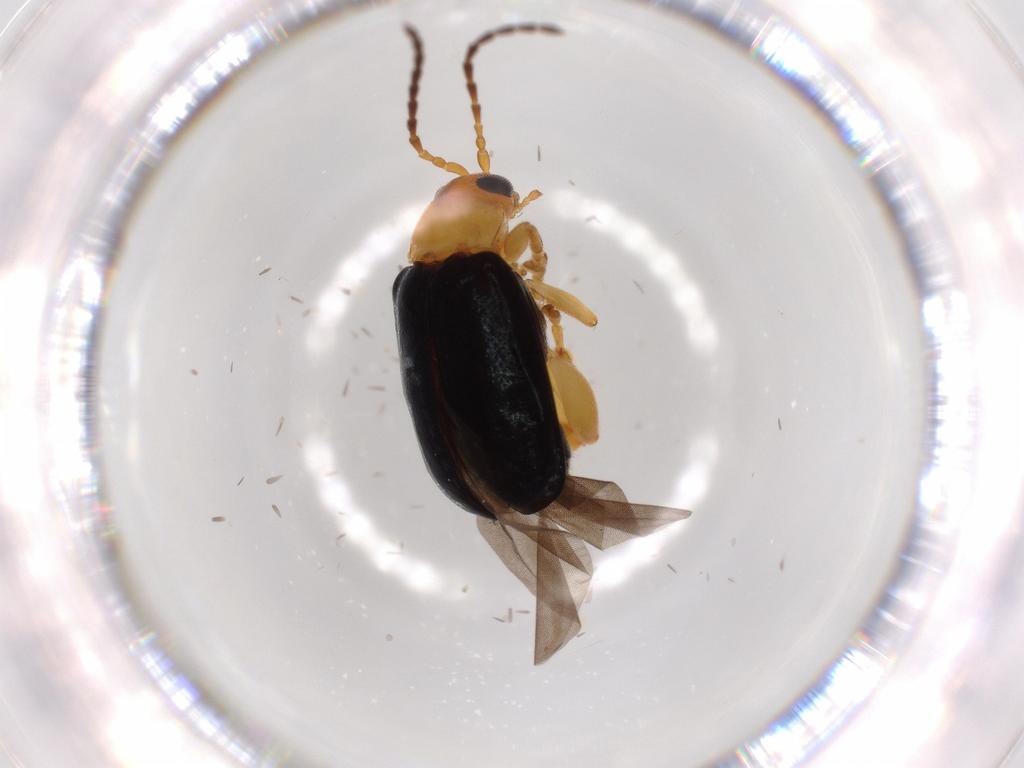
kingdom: Animalia
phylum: Arthropoda
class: Insecta
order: Coleoptera
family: Chrysomelidae
